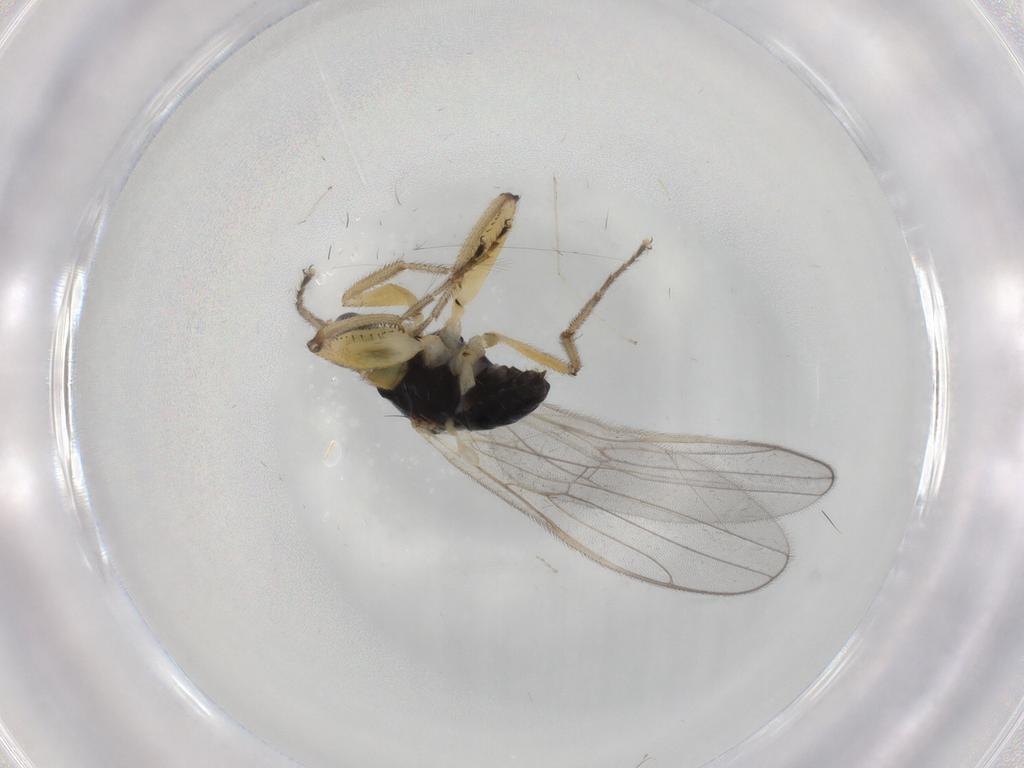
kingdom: Animalia
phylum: Arthropoda
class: Insecta
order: Diptera
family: Hybotidae
